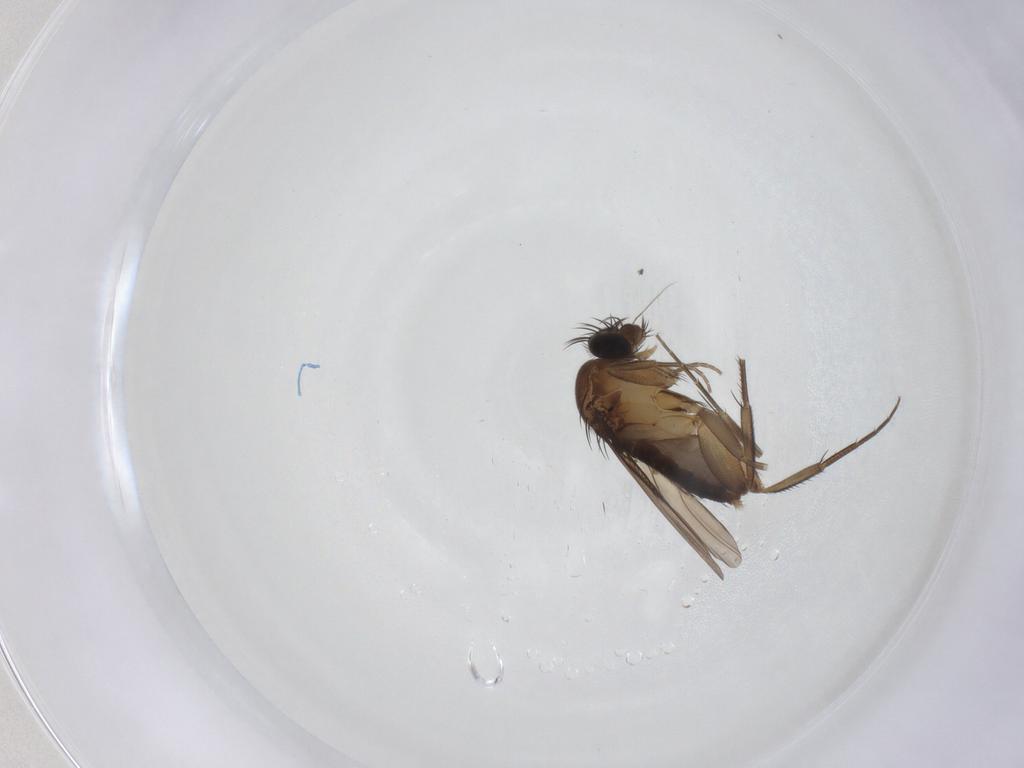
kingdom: Animalia
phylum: Arthropoda
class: Insecta
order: Diptera
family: Phoridae
